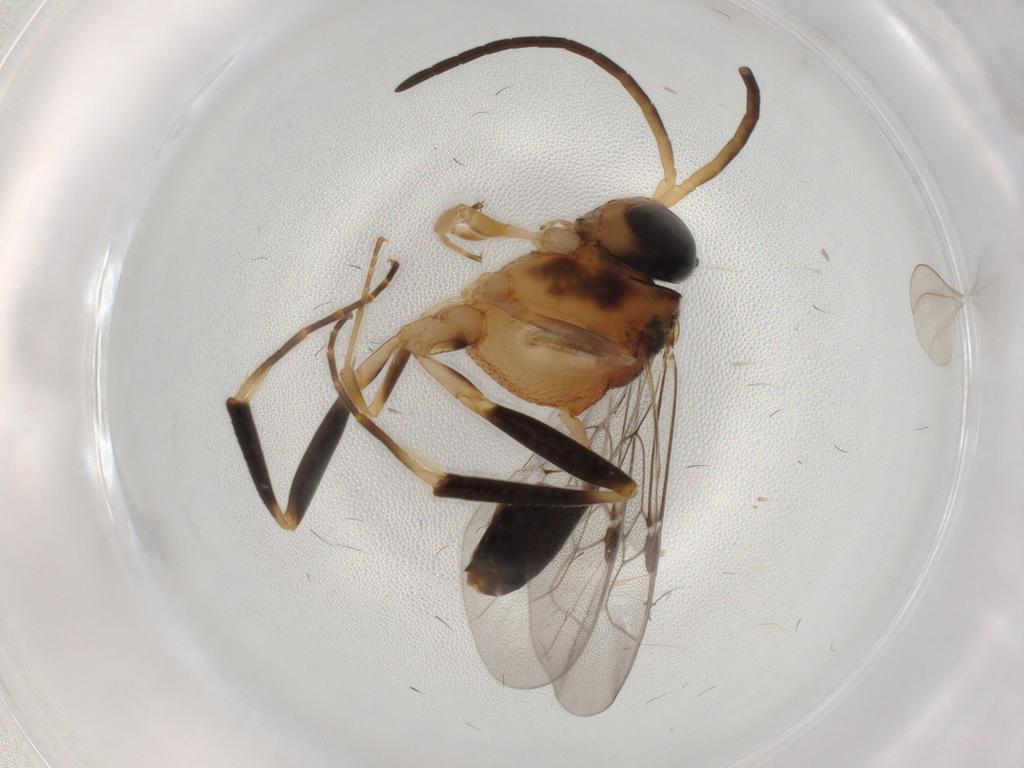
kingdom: Animalia
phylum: Arthropoda
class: Insecta
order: Hymenoptera
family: Evaniidae
